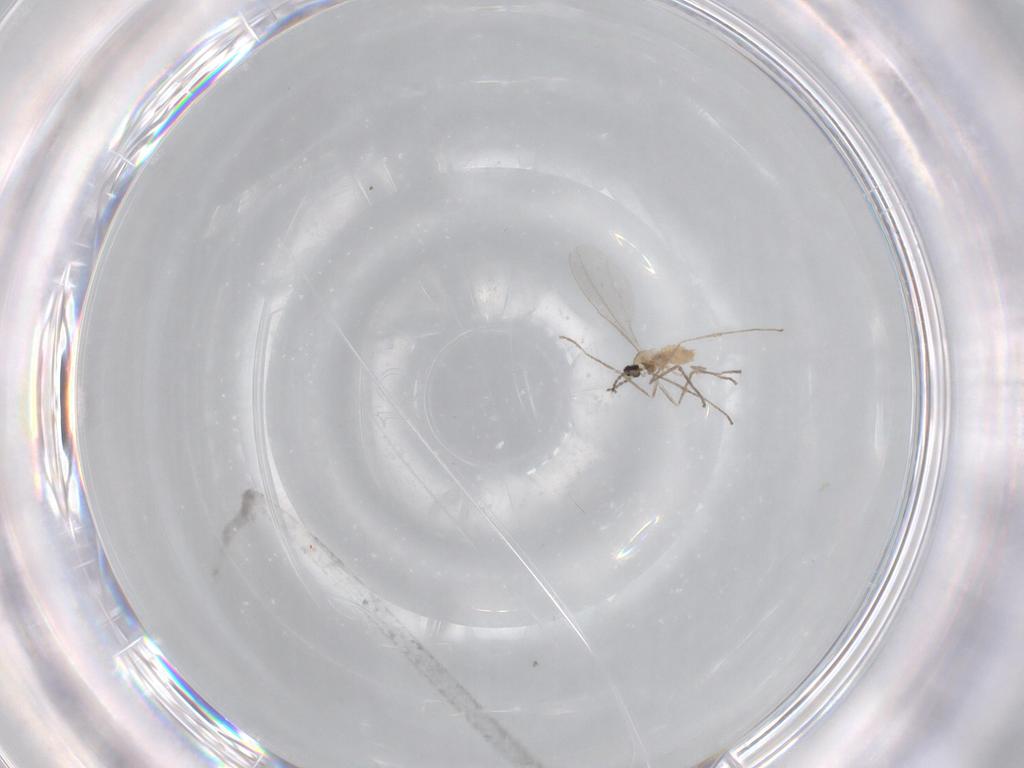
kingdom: Animalia
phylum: Arthropoda
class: Insecta
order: Diptera
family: Cecidomyiidae
